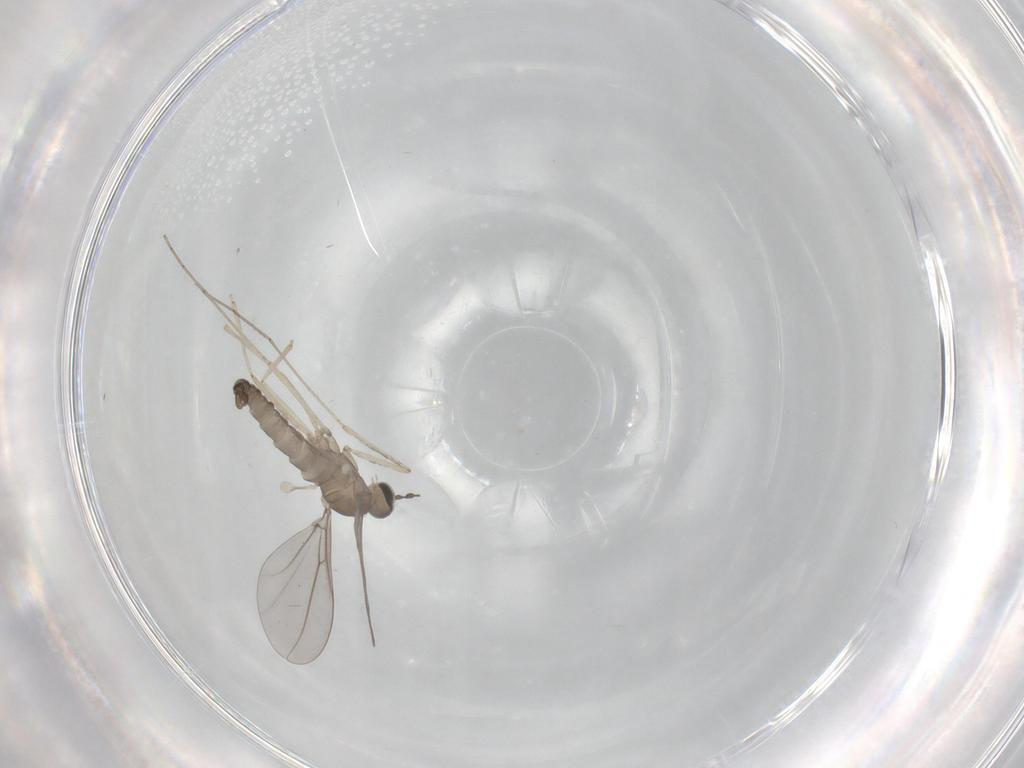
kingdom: Animalia
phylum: Arthropoda
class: Insecta
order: Diptera
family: Cecidomyiidae
